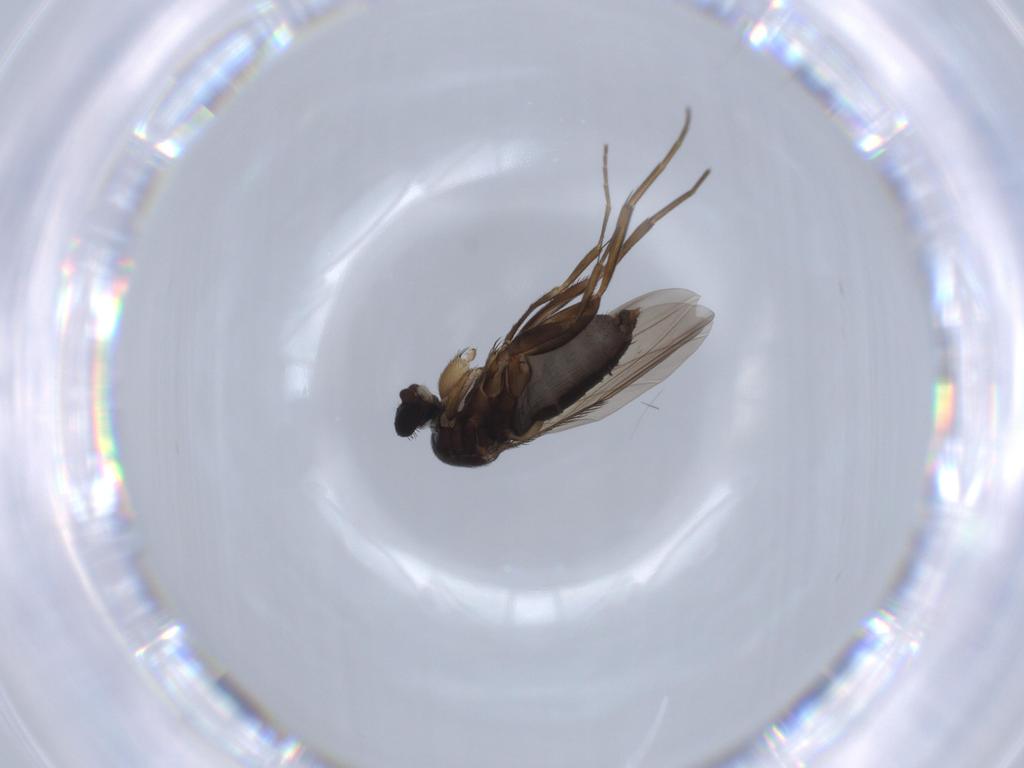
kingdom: Animalia
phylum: Arthropoda
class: Insecta
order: Diptera
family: Phoridae
